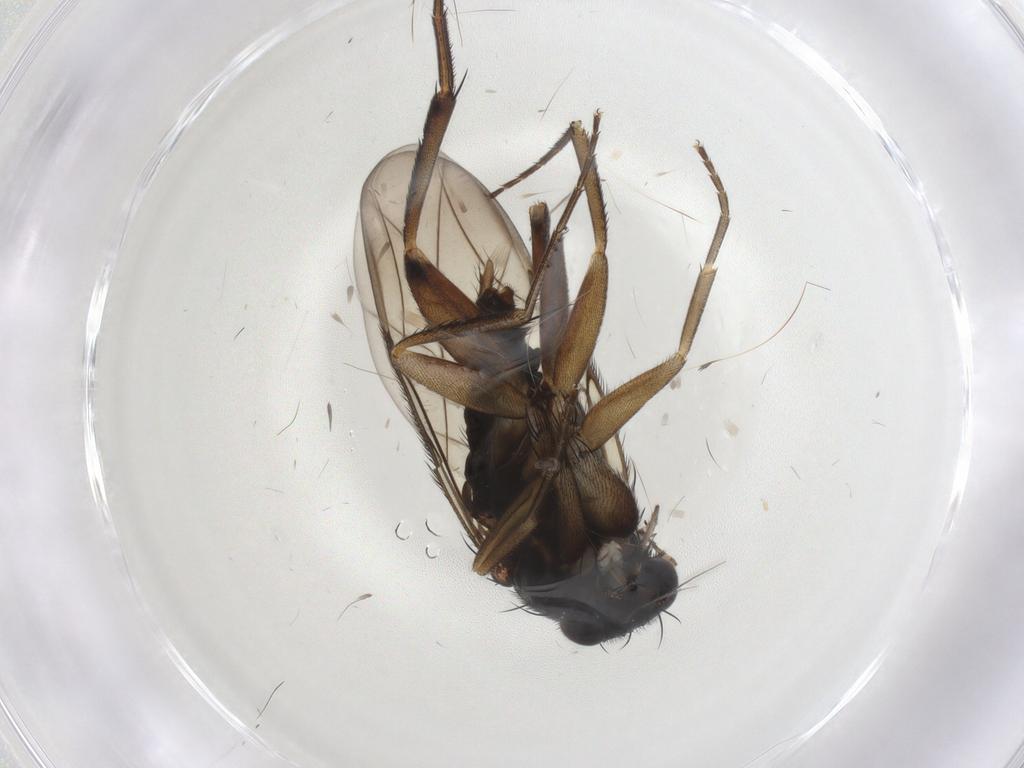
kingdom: Animalia
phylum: Arthropoda
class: Insecta
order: Diptera
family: Phoridae
